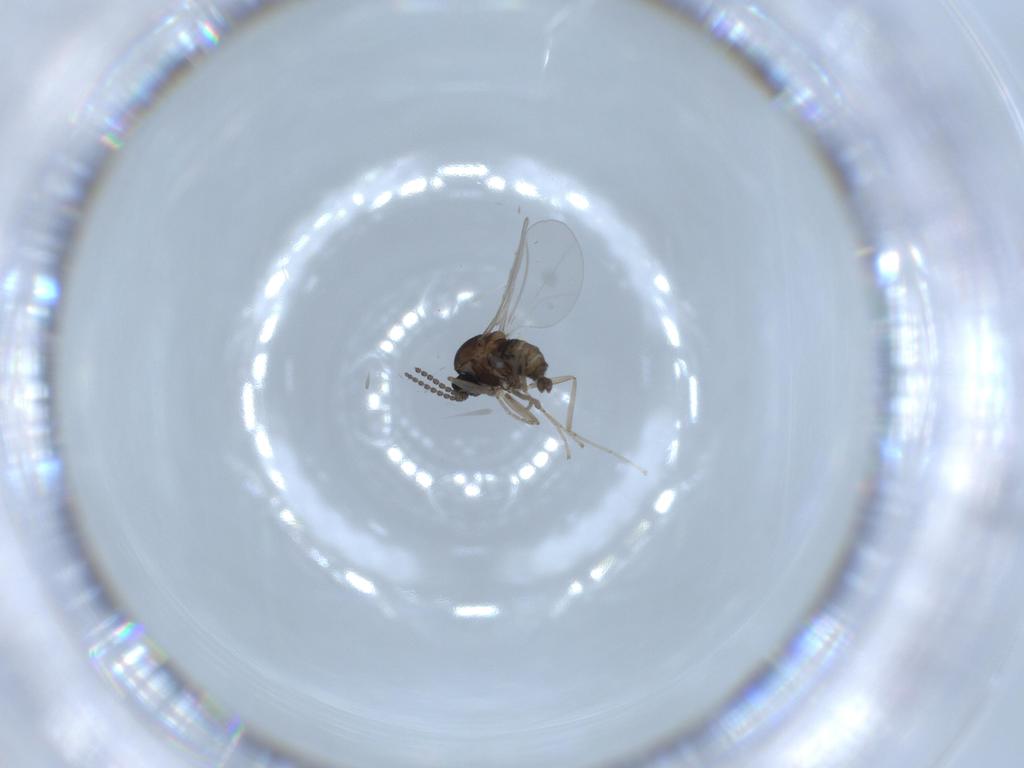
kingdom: Animalia
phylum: Arthropoda
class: Insecta
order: Diptera
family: Cecidomyiidae
